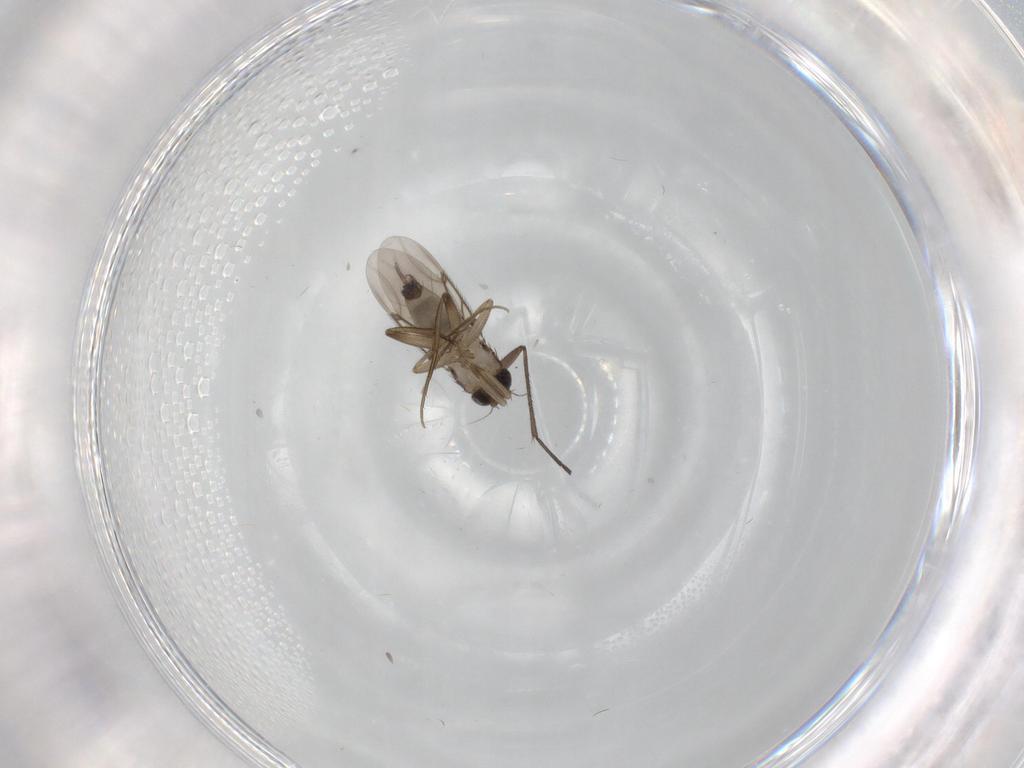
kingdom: Animalia
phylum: Arthropoda
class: Insecta
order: Diptera
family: Phoridae
